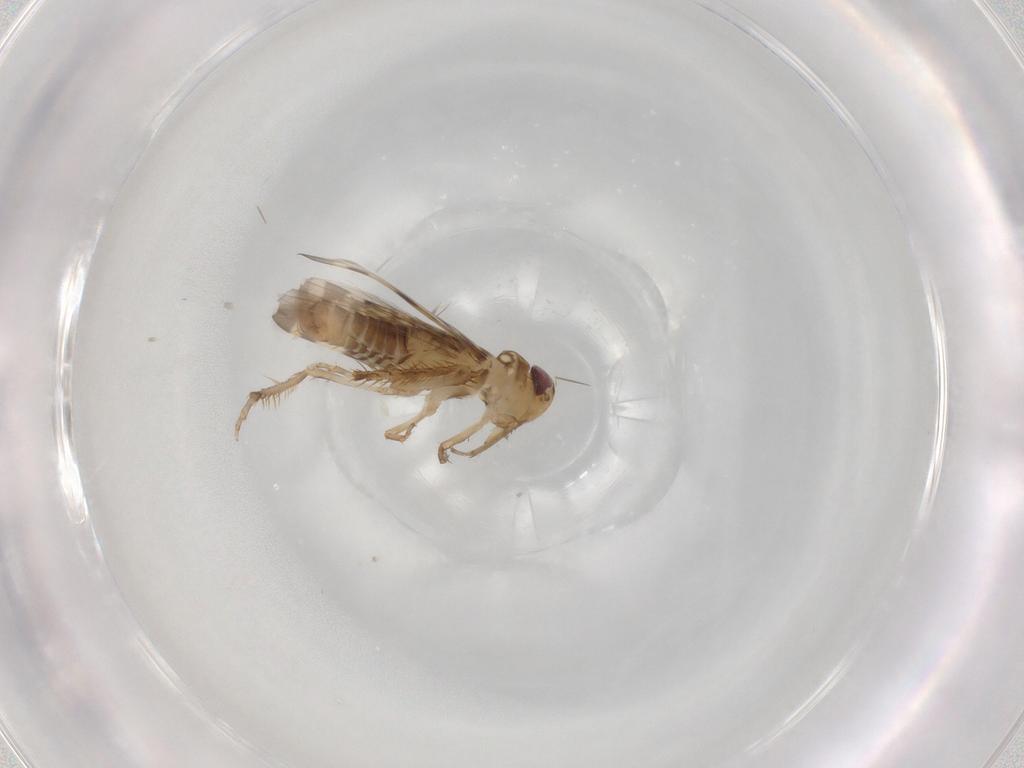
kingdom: Animalia
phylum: Arthropoda
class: Insecta
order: Hemiptera
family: Cicadellidae
